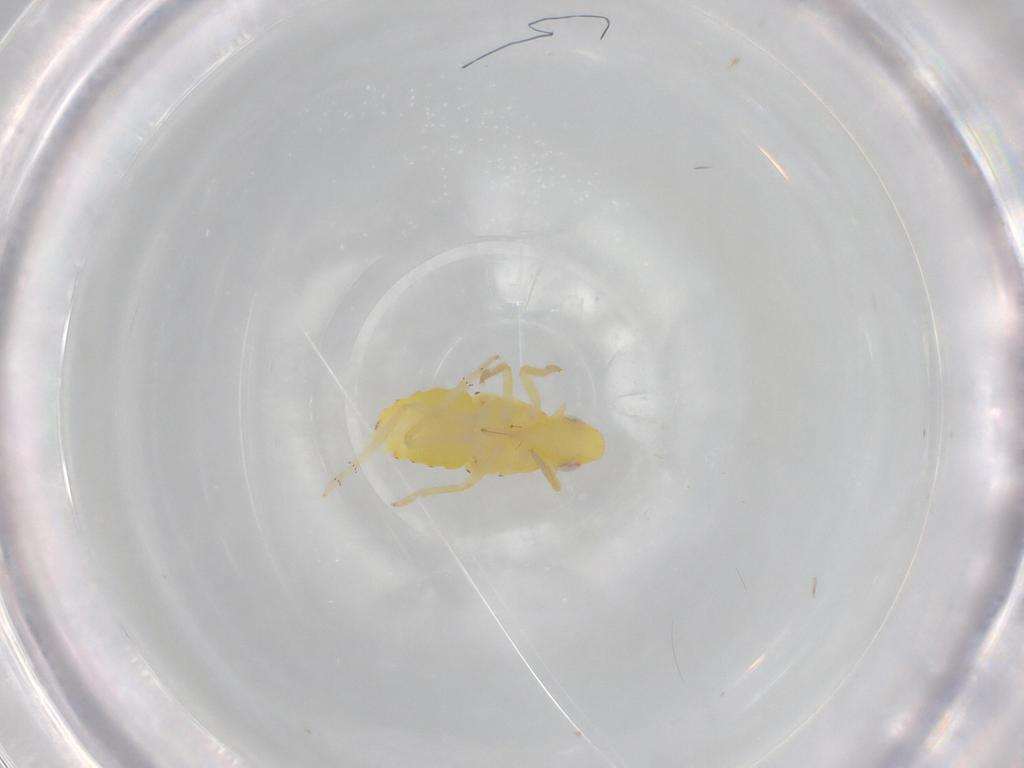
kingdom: Animalia
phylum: Arthropoda
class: Insecta
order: Hemiptera
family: Tropiduchidae
